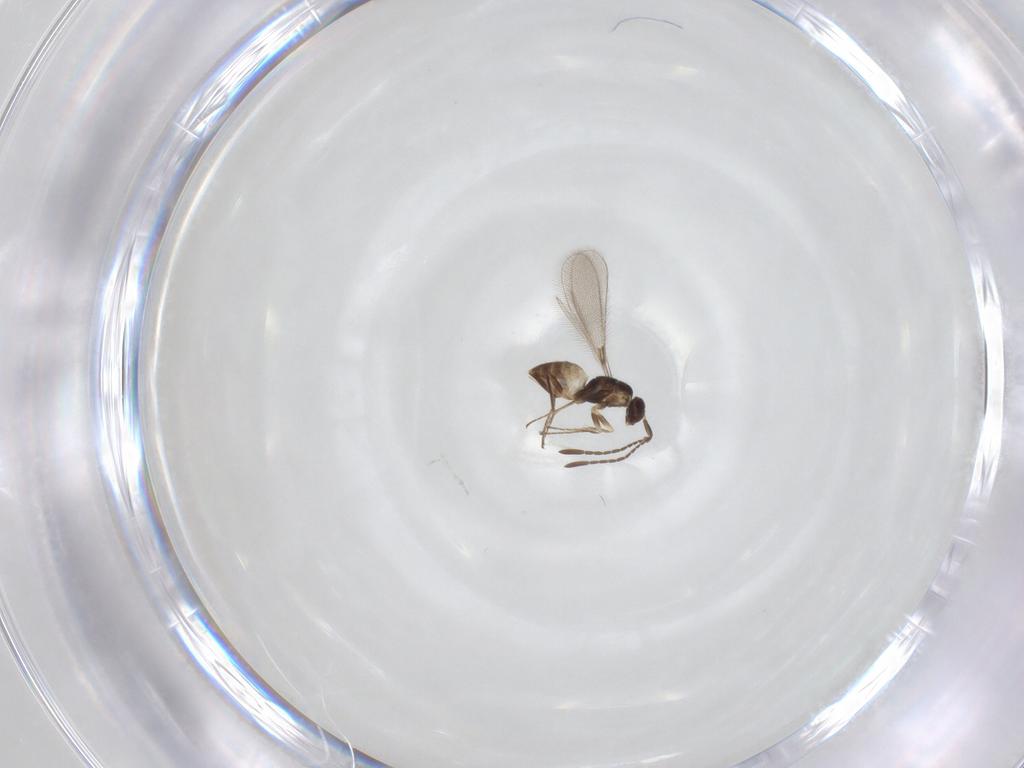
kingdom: Animalia
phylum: Arthropoda
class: Insecta
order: Hymenoptera
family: Mymaridae
